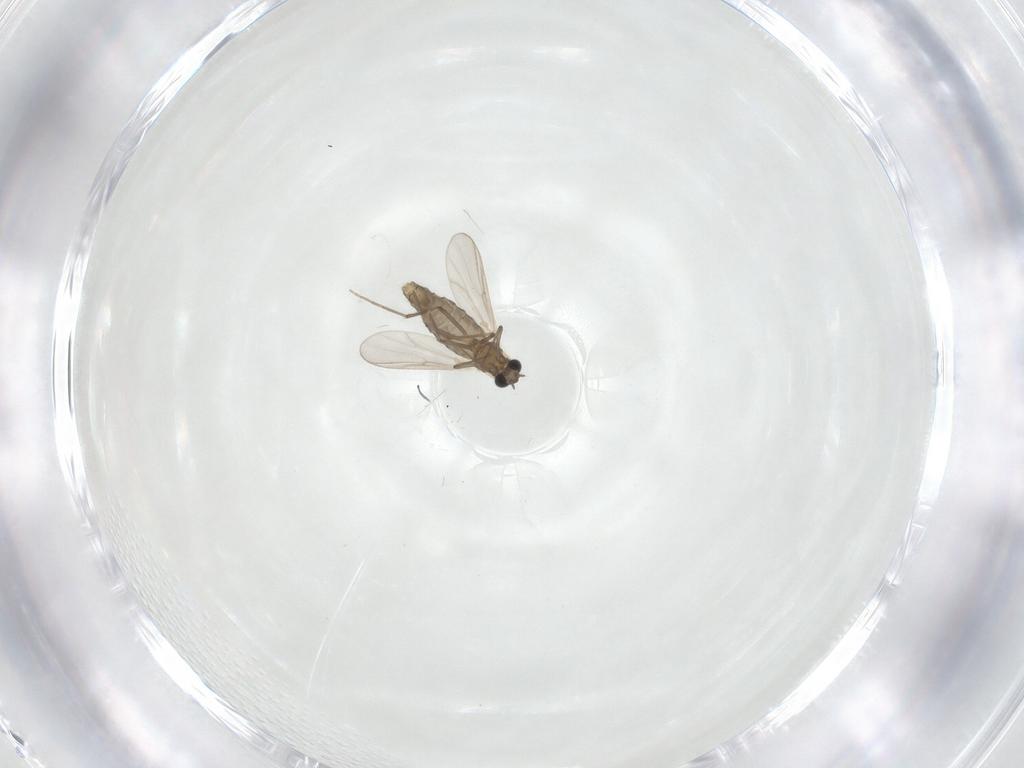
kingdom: Animalia
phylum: Arthropoda
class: Insecta
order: Diptera
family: Chironomidae
